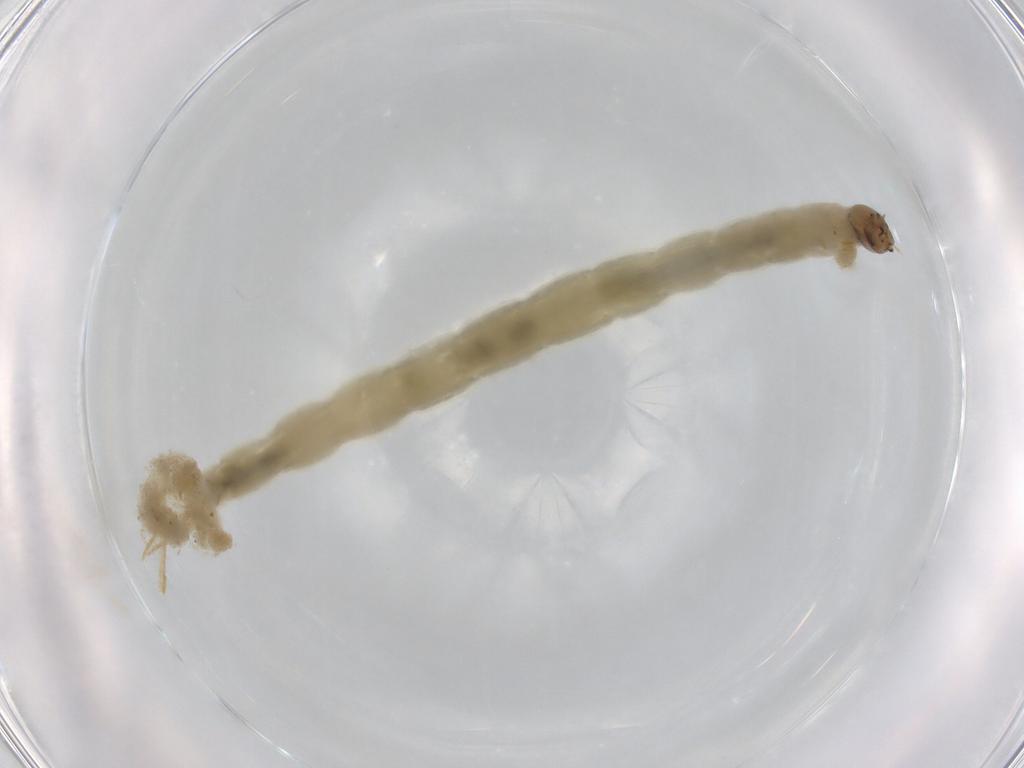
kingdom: Animalia
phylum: Arthropoda
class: Insecta
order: Diptera
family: Chironomidae
